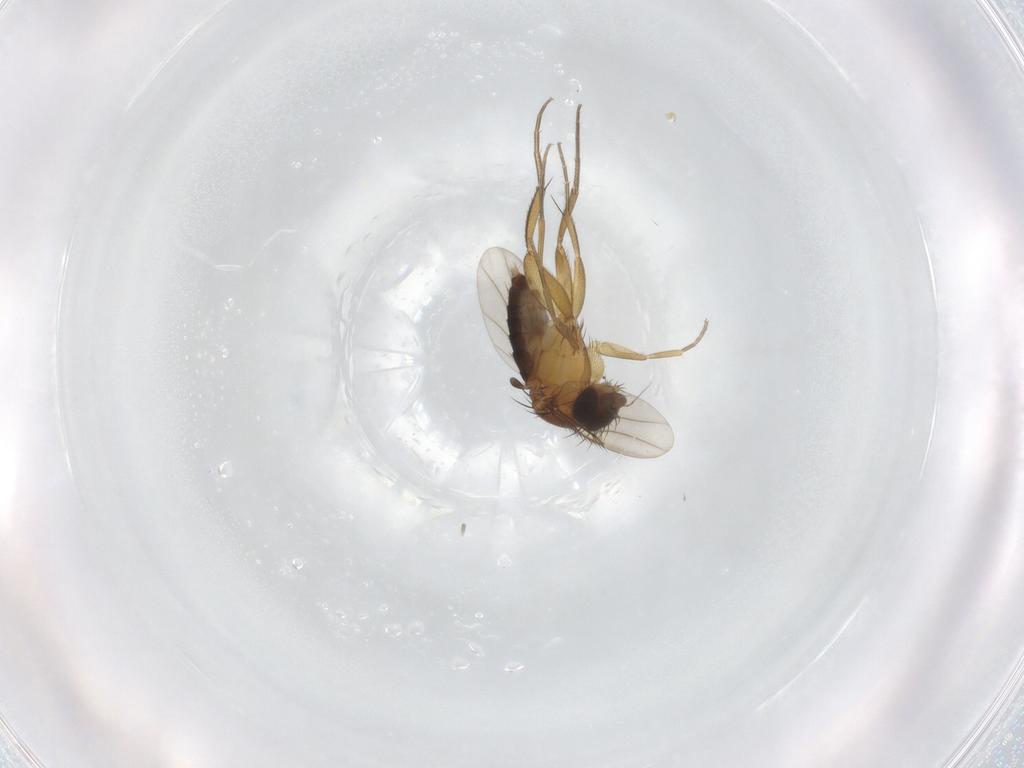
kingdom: Animalia
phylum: Arthropoda
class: Insecta
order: Diptera
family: Phoridae
